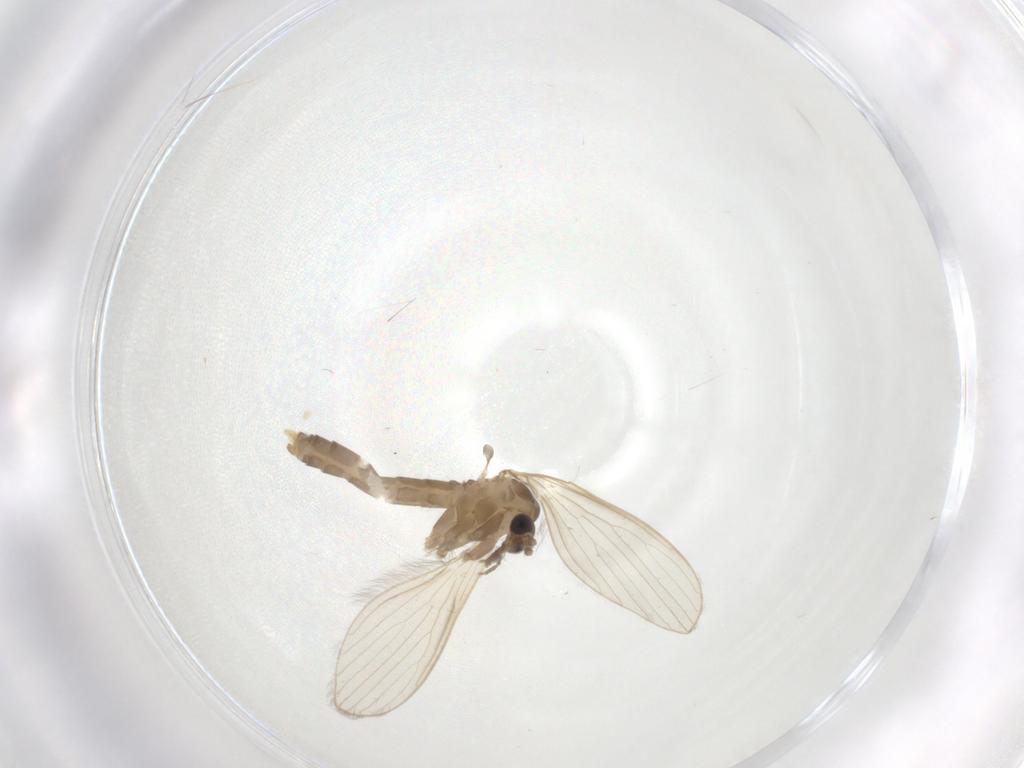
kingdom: Animalia
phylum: Arthropoda
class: Insecta
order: Diptera
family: Psychodidae
